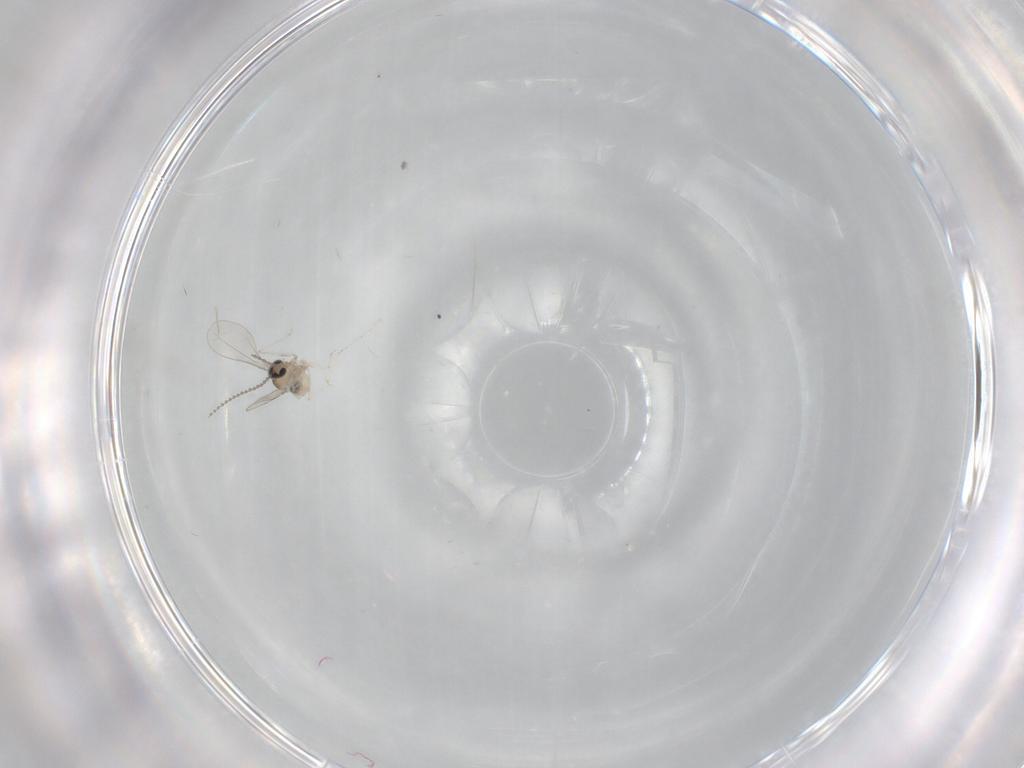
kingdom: Animalia
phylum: Arthropoda
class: Insecta
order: Diptera
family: Cecidomyiidae
